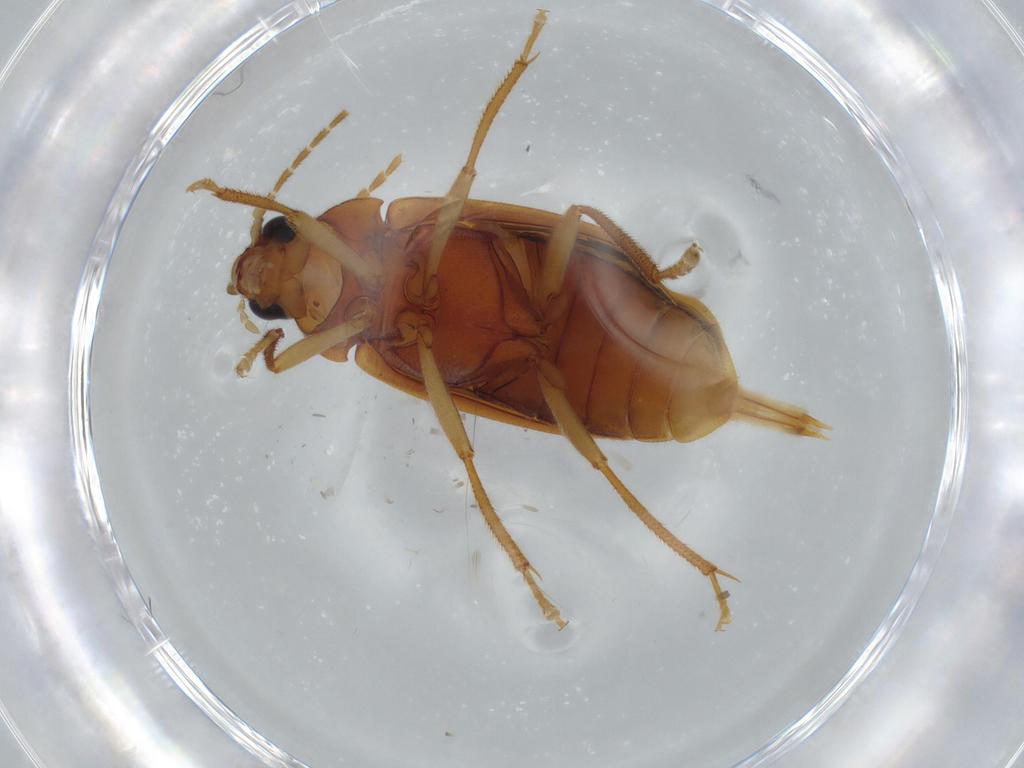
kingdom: Animalia
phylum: Arthropoda
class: Insecta
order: Coleoptera
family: Ptilodactylidae
